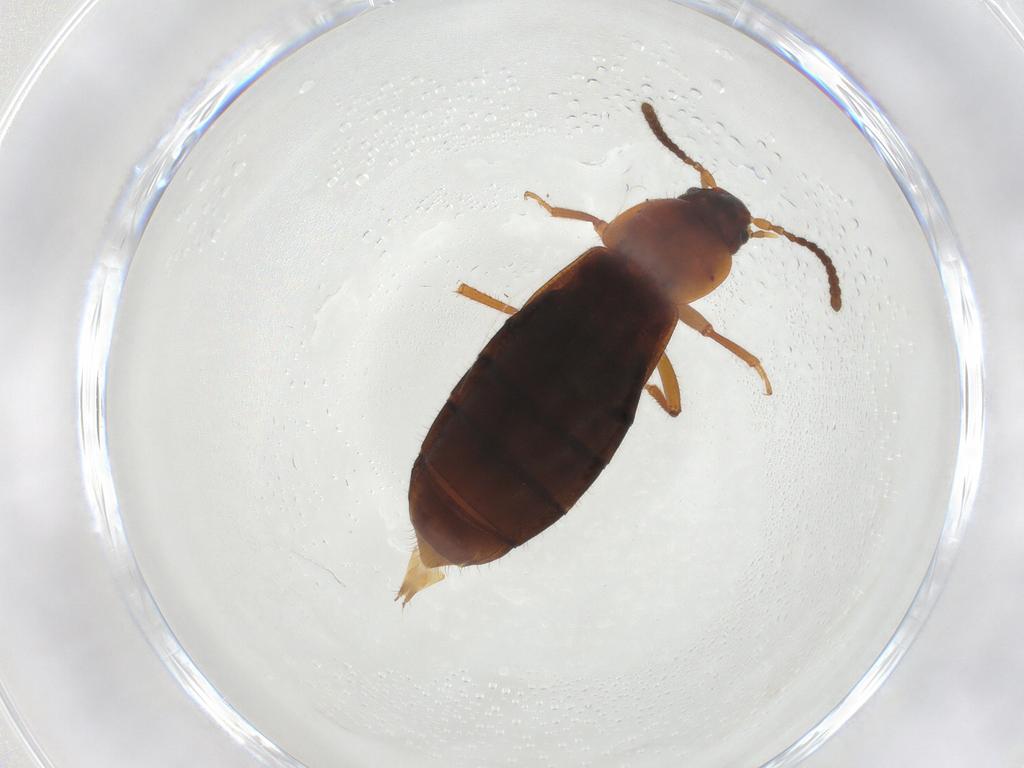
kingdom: Animalia
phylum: Arthropoda
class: Insecta
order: Coleoptera
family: Staphylinidae
